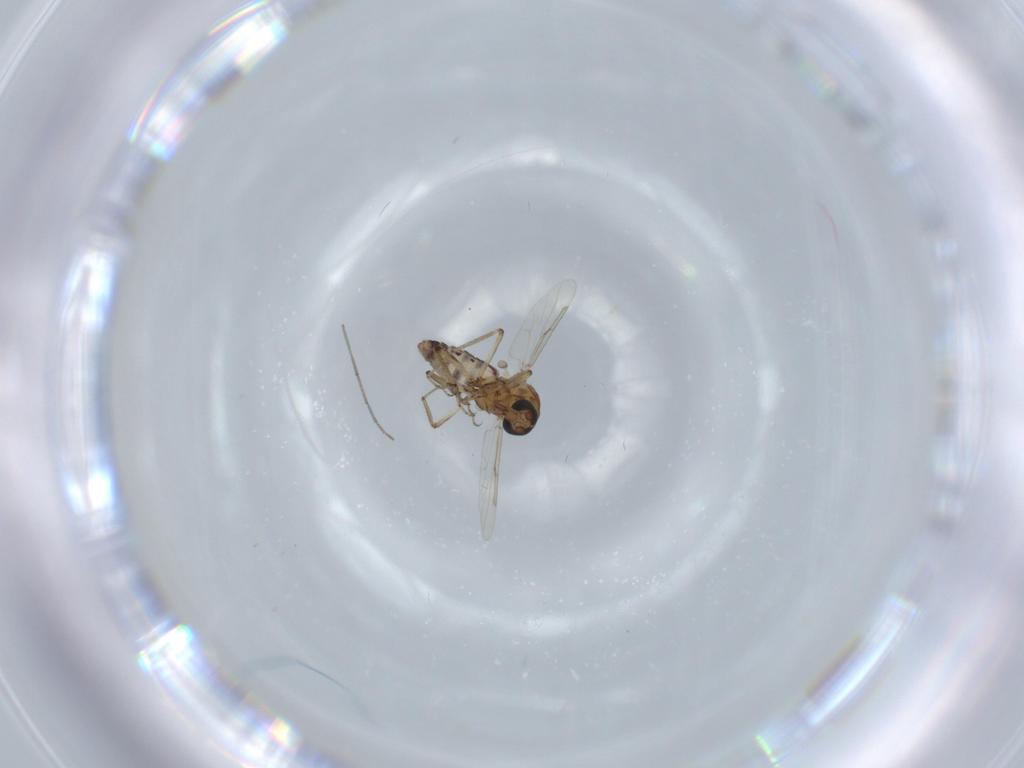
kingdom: Animalia
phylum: Arthropoda
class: Insecta
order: Diptera
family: Ceratopogonidae
